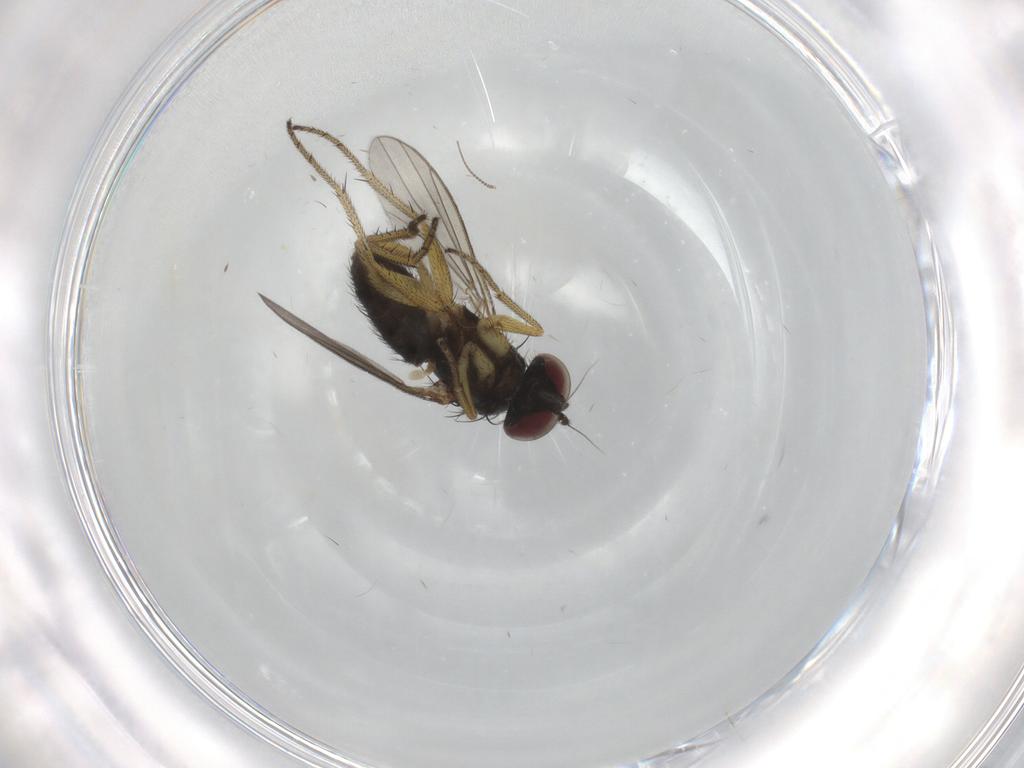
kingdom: Animalia
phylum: Arthropoda
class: Insecta
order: Diptera
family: Chironomidae
